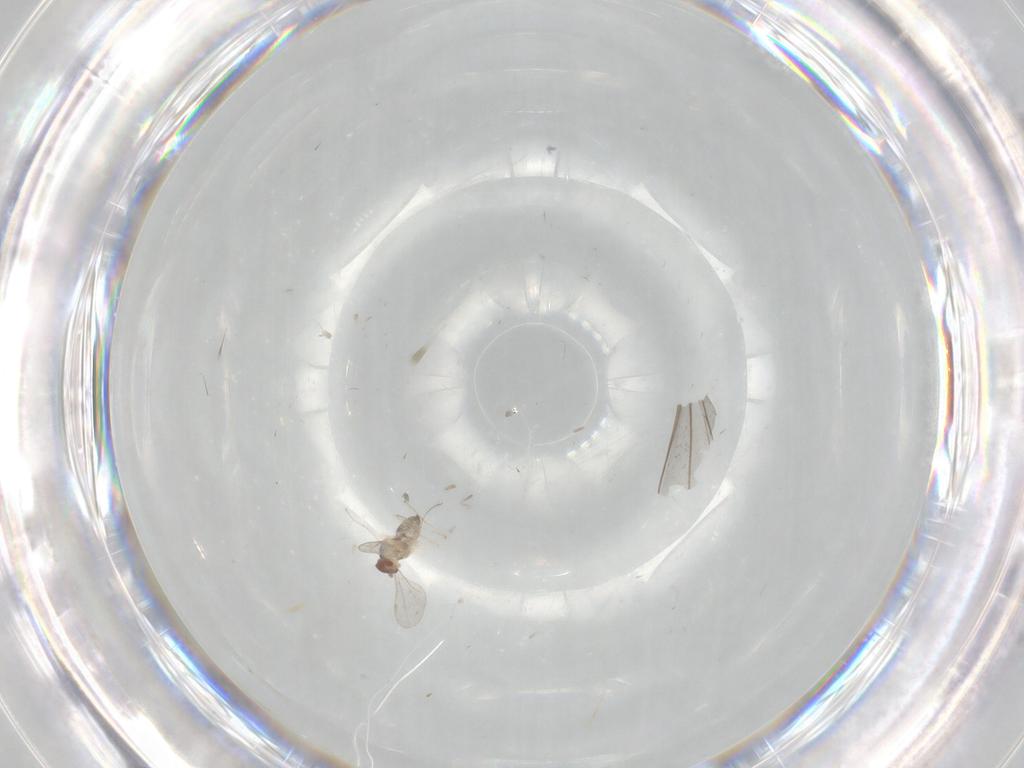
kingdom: Animalia
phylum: Arthropoda
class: Insecta
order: Diptera
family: Cecidomyiidae
